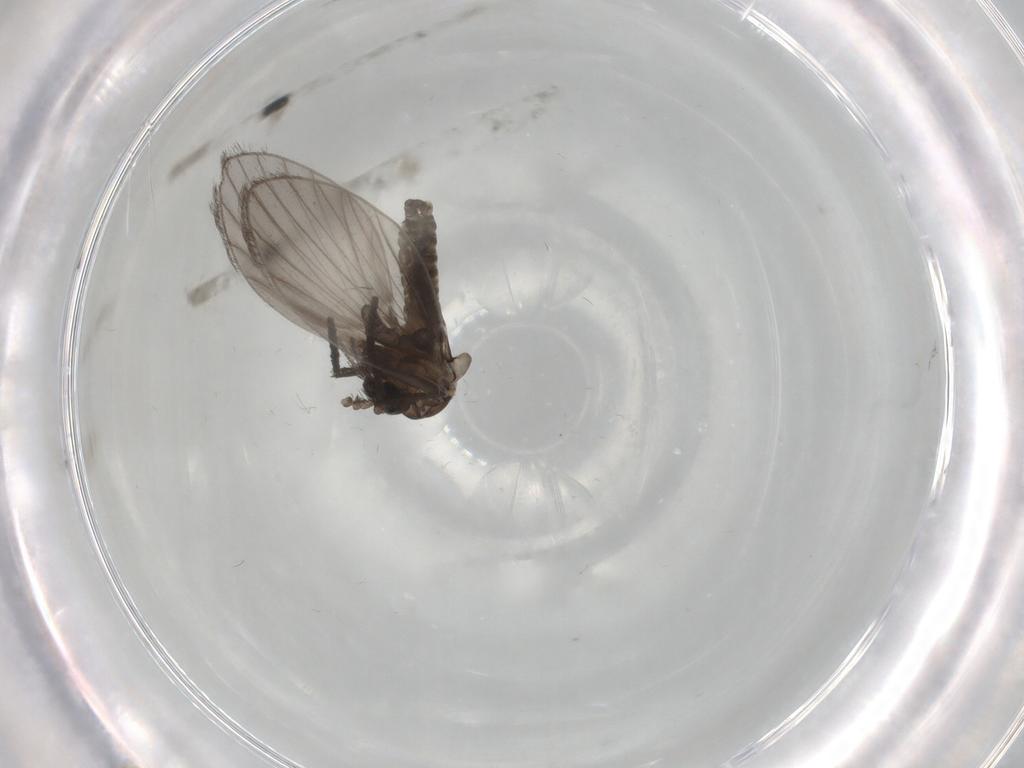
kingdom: Animalia
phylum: Arthropoda
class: Insecta
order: Diptera
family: Psychodidae
